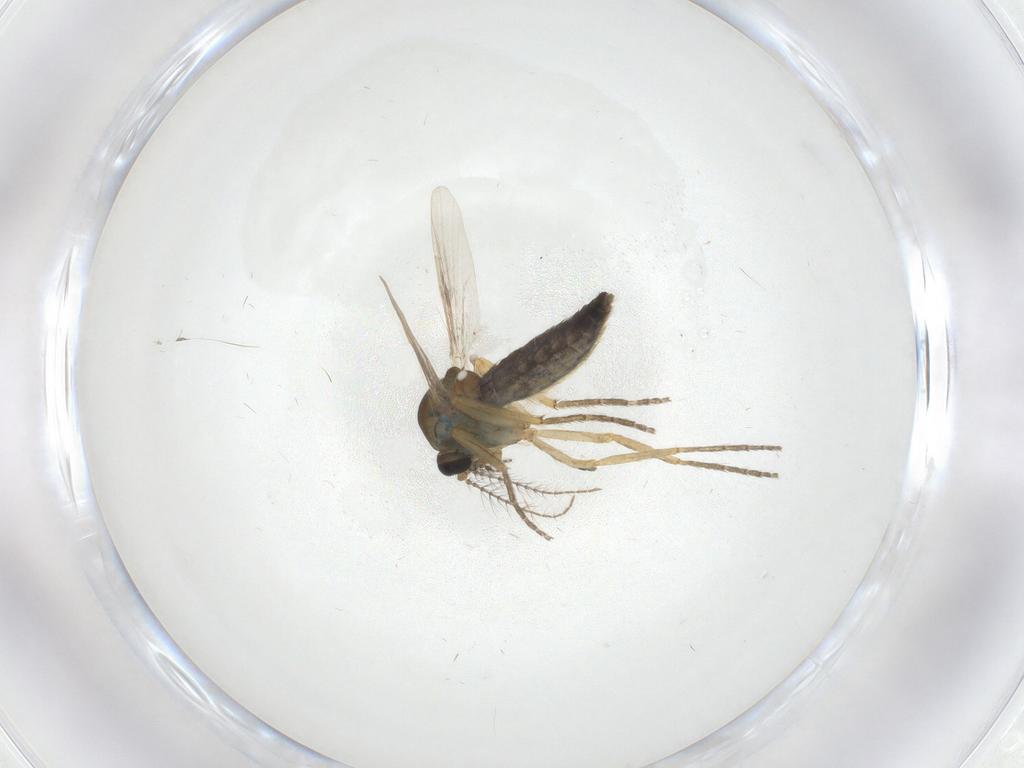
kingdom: Animalia
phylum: Arthropoda
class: Insecta
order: Diptera
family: Ceratopogonidae
